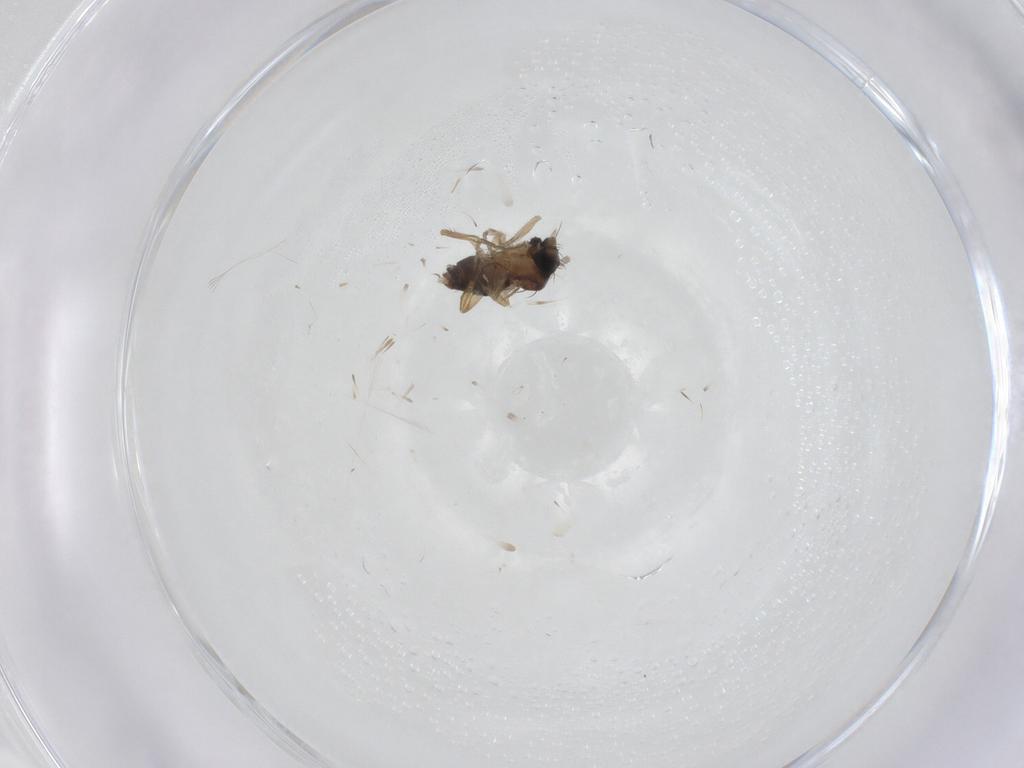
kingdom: Animalia
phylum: Arthropoda
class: Insecta
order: Diptera
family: Phoridae
